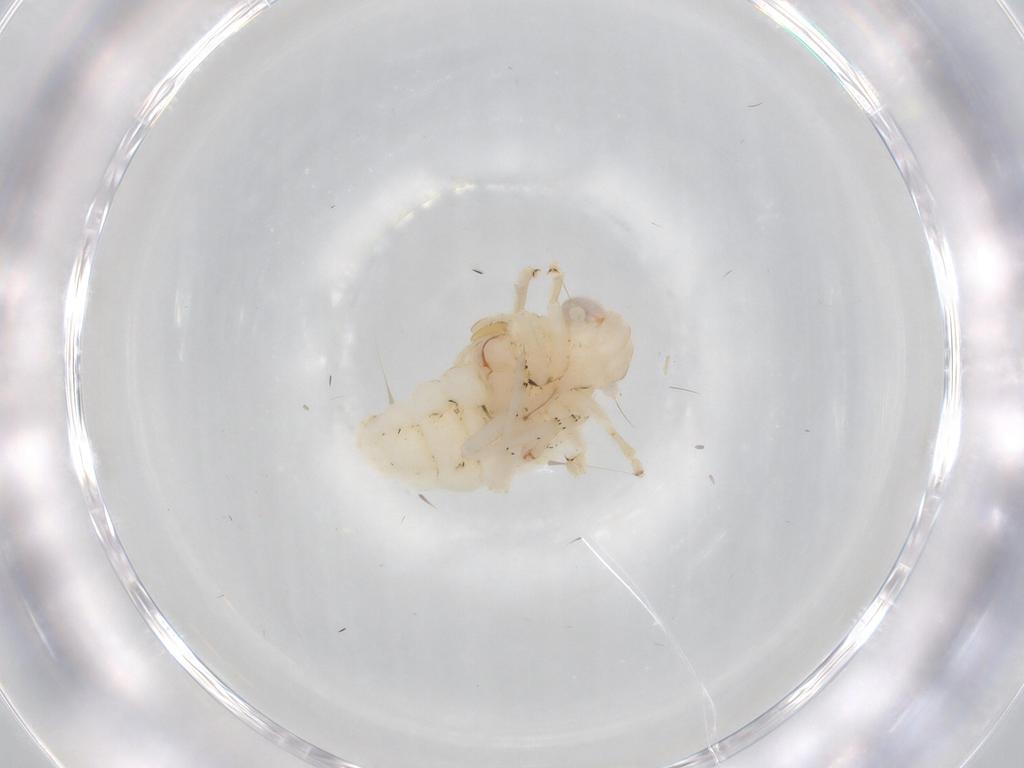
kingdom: Animalia
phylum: Arthropoda
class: Insecta
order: Hemiptera
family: Nogodinidae
